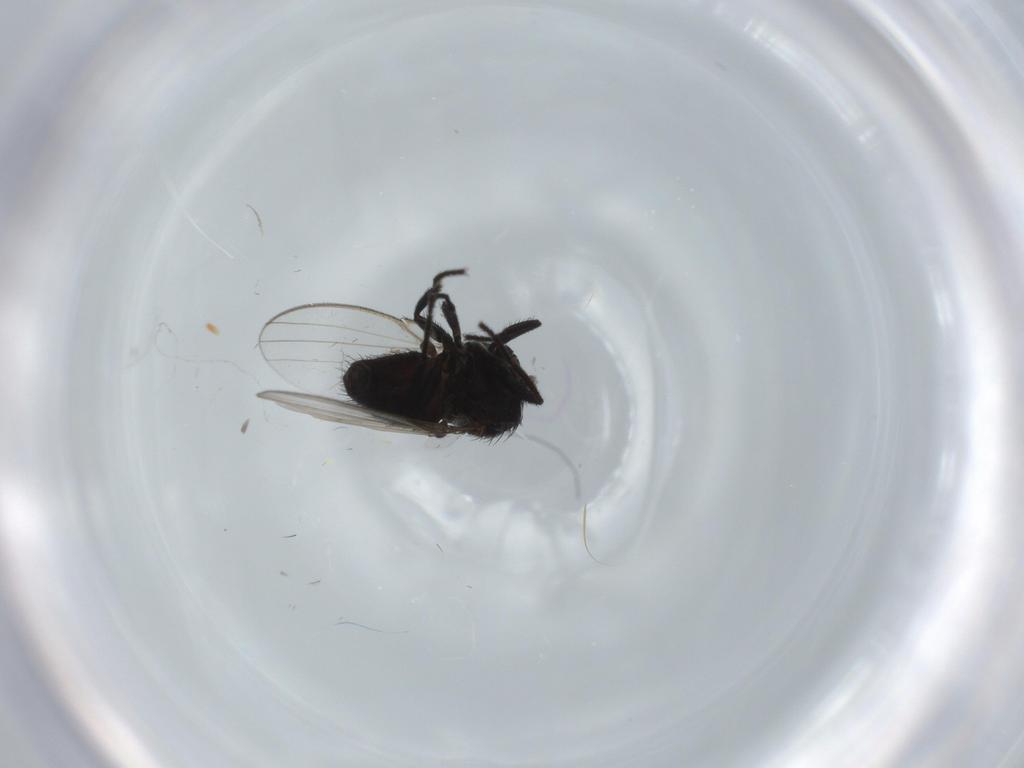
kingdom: Animalia
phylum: Arthropoda
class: Insecta
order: Diptera
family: Milichiidae
